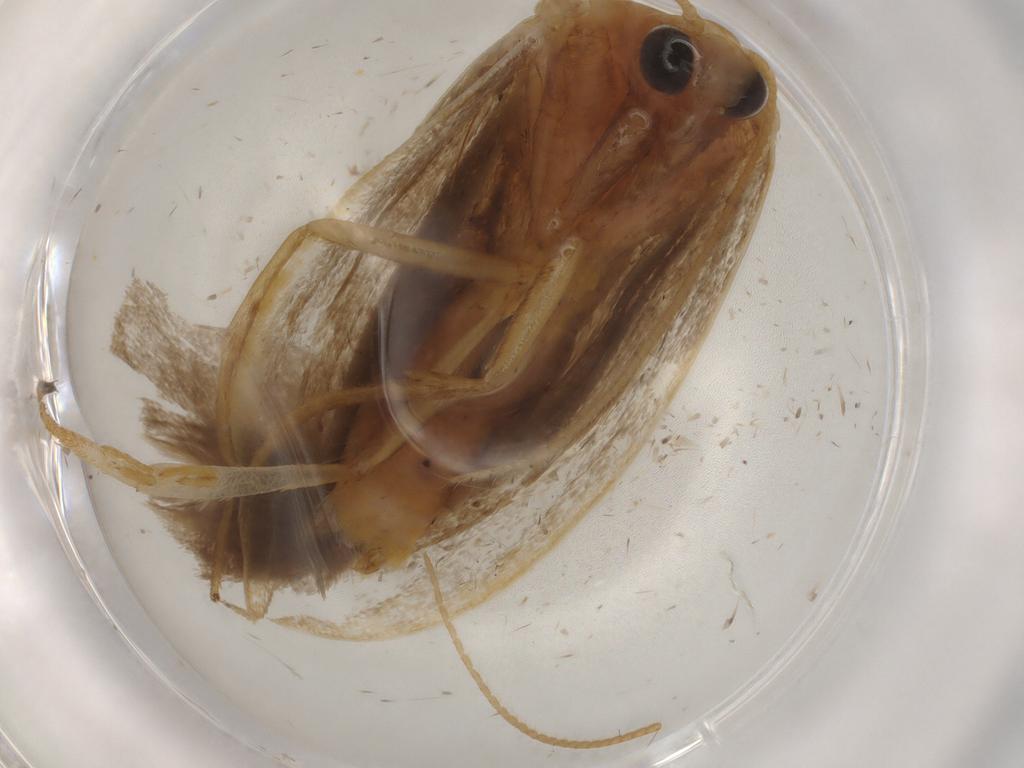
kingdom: Animalia
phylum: Arthropoda
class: Insecta
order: Lepidoptera
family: Erebidae
